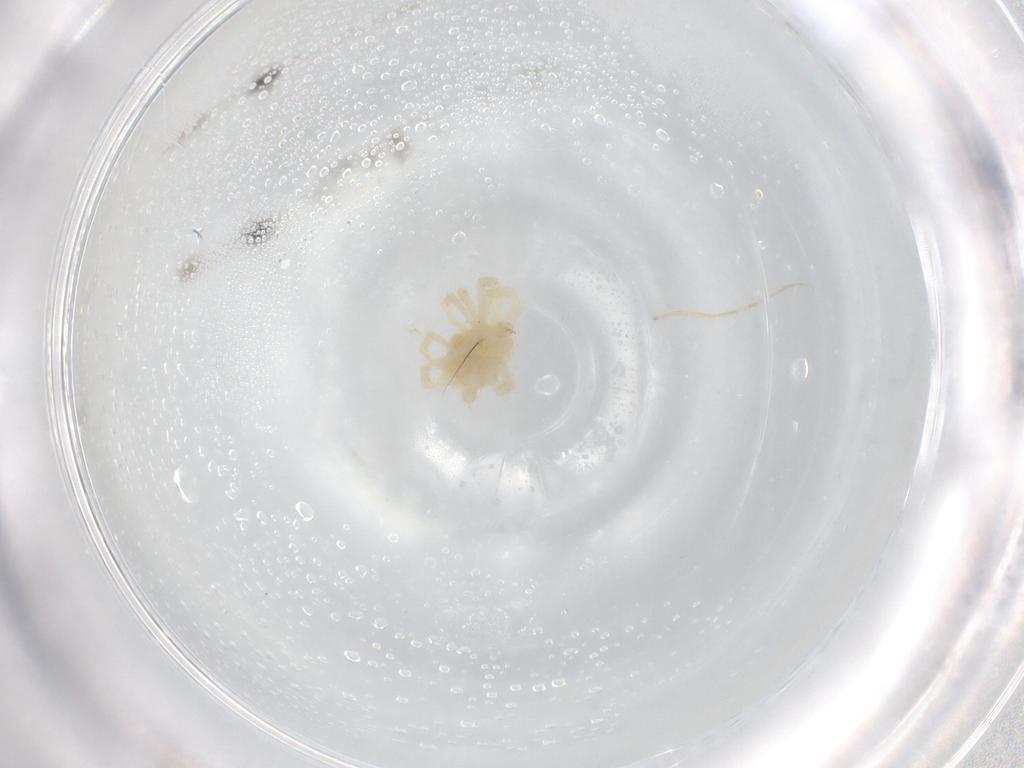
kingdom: Animalia
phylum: Arthropoda
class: Arachnida
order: Trombidiformes
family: Anystidae
